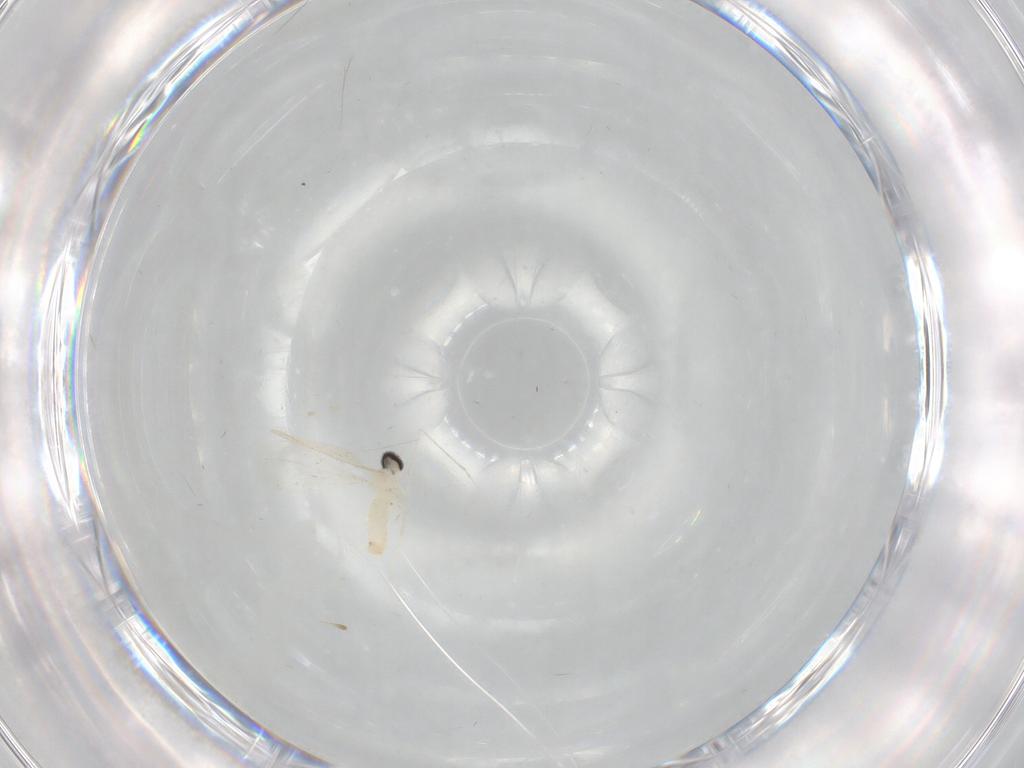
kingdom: Animalia
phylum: Arthropoda
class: Insecta
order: Diptera
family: Cecidomyiidae
